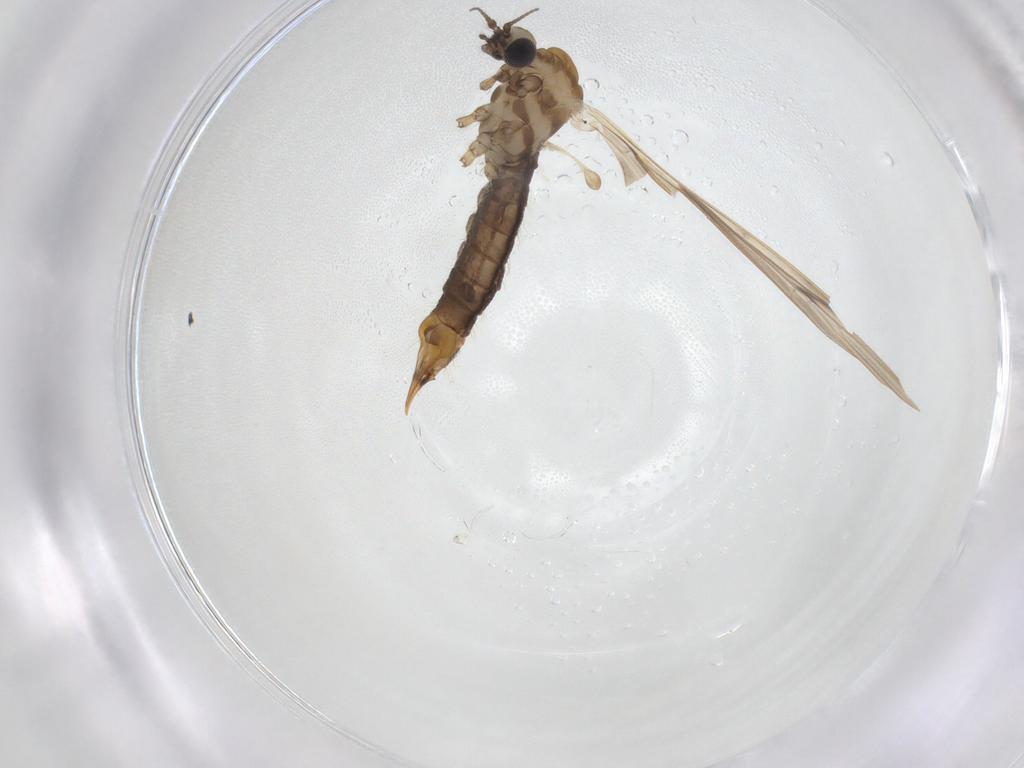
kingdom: Animalia
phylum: Arthropoda
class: Insecta
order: Diptera
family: Limoniidae
